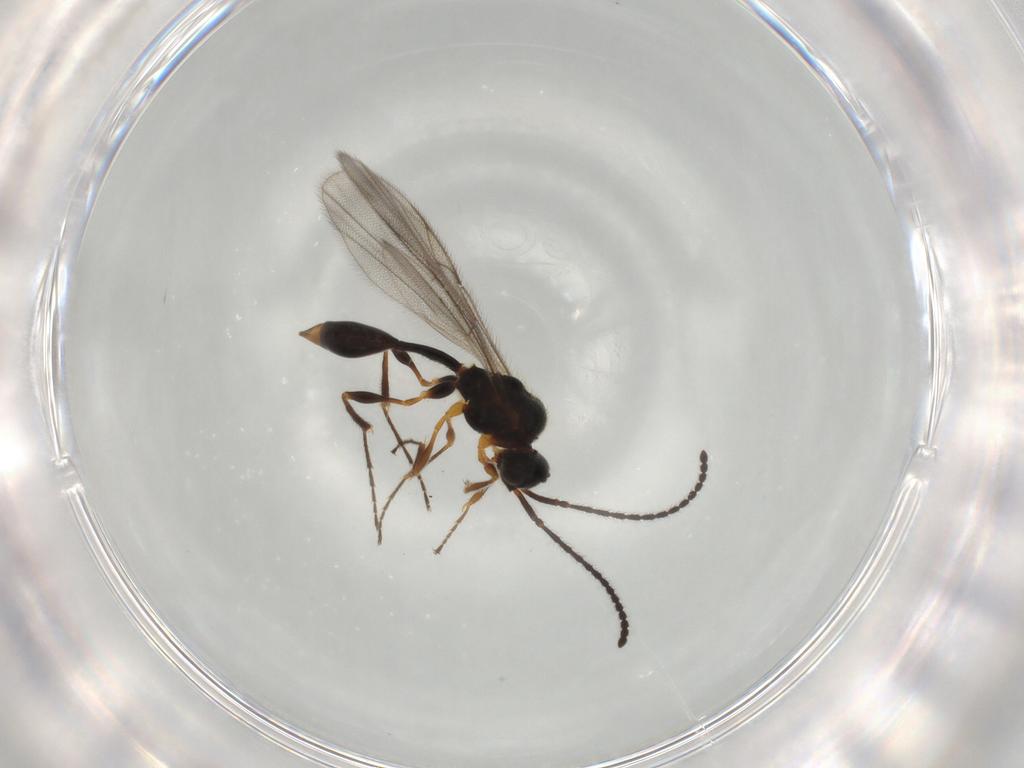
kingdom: Animalia
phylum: Arthropoda
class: Insecta
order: Hymenoptera
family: Diapriidae
